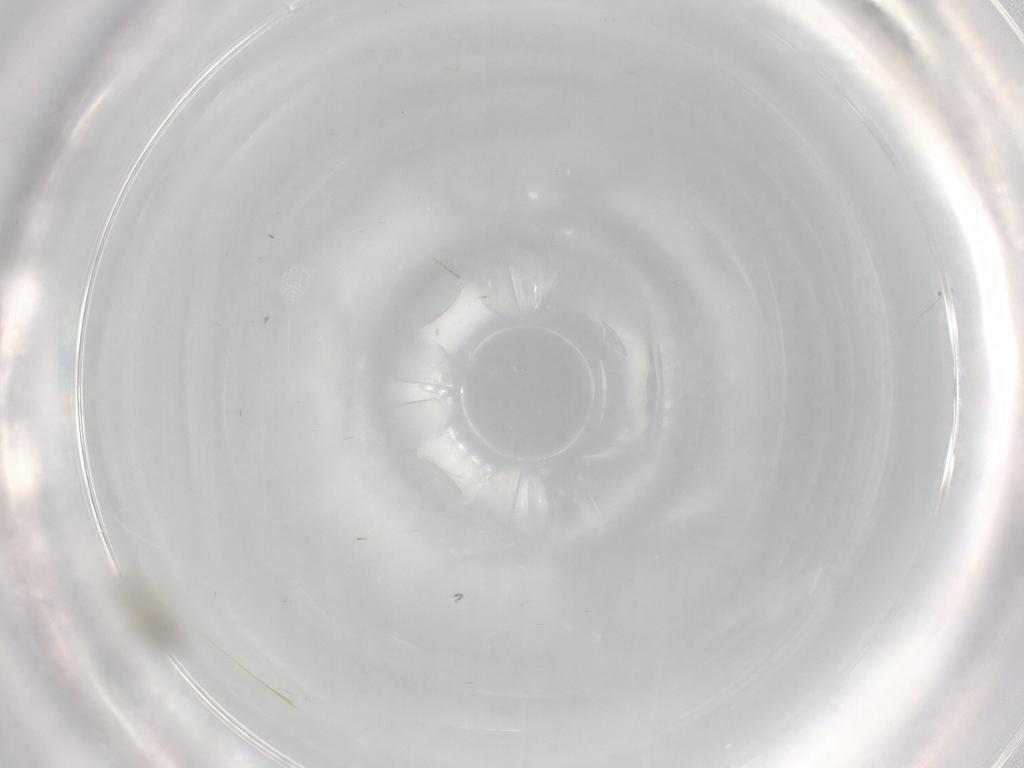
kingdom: Animalia
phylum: Arthropoda
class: Insecta
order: Diptera
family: Cecidomyiidae
